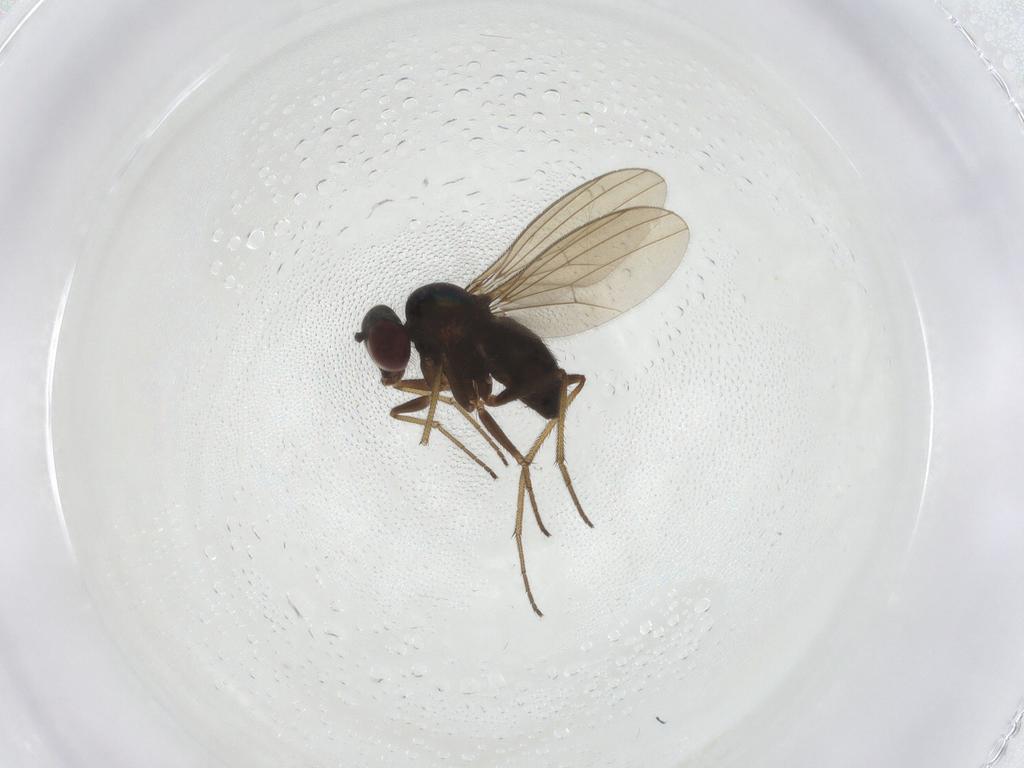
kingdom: Animalia
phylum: Arthropoda
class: Insecta
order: Diptera
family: Dolichopodidae
